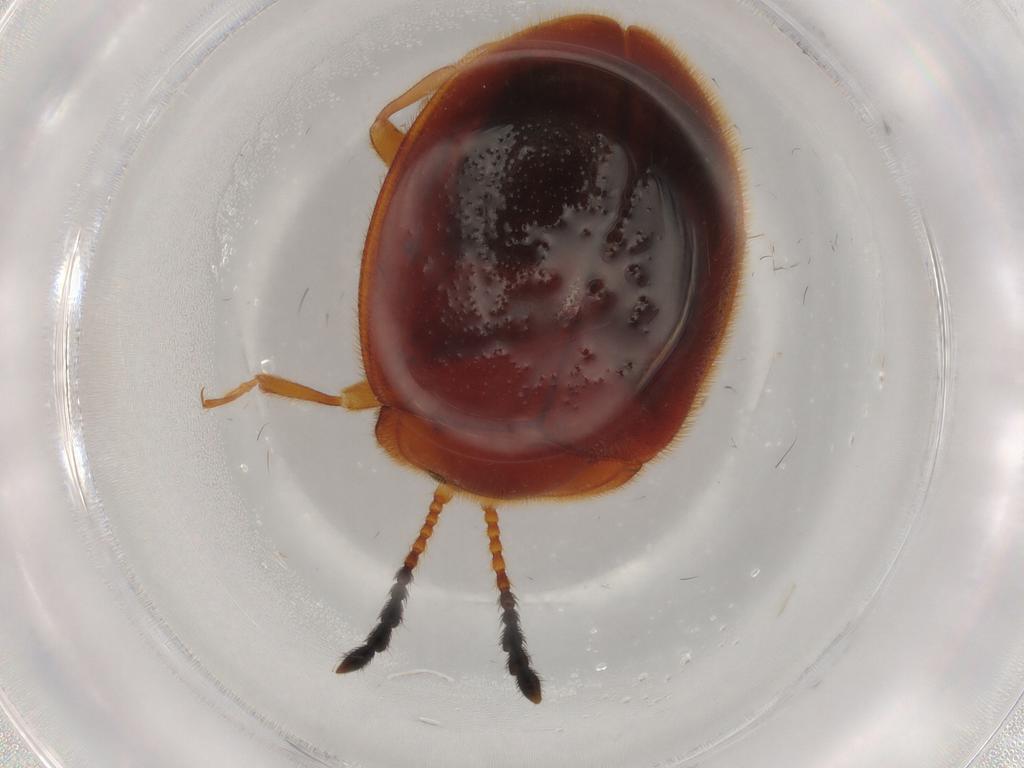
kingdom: Animalia
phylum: Arthropoda
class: Insecta
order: Coleoptera
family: Endomychidae
